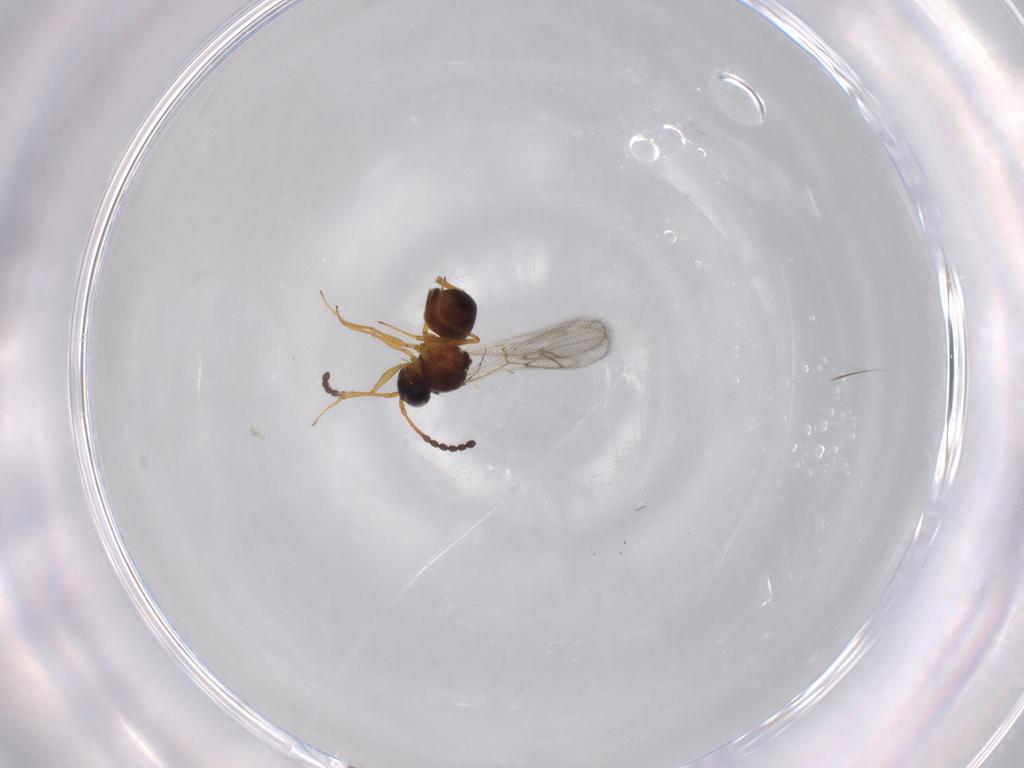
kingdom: Animalia
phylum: Arthropoda
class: Insecta
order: Hymenoptera
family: Figitidae
